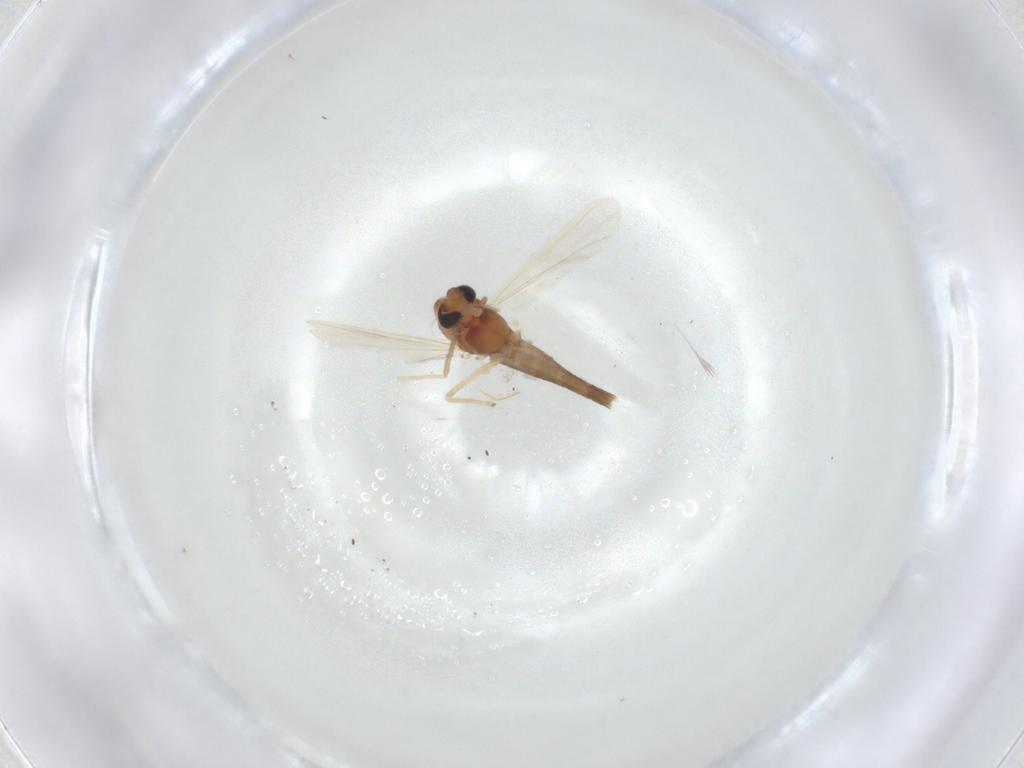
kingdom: Animalia
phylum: Arthropoda
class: Insecta
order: Diptera
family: Chironomidae
